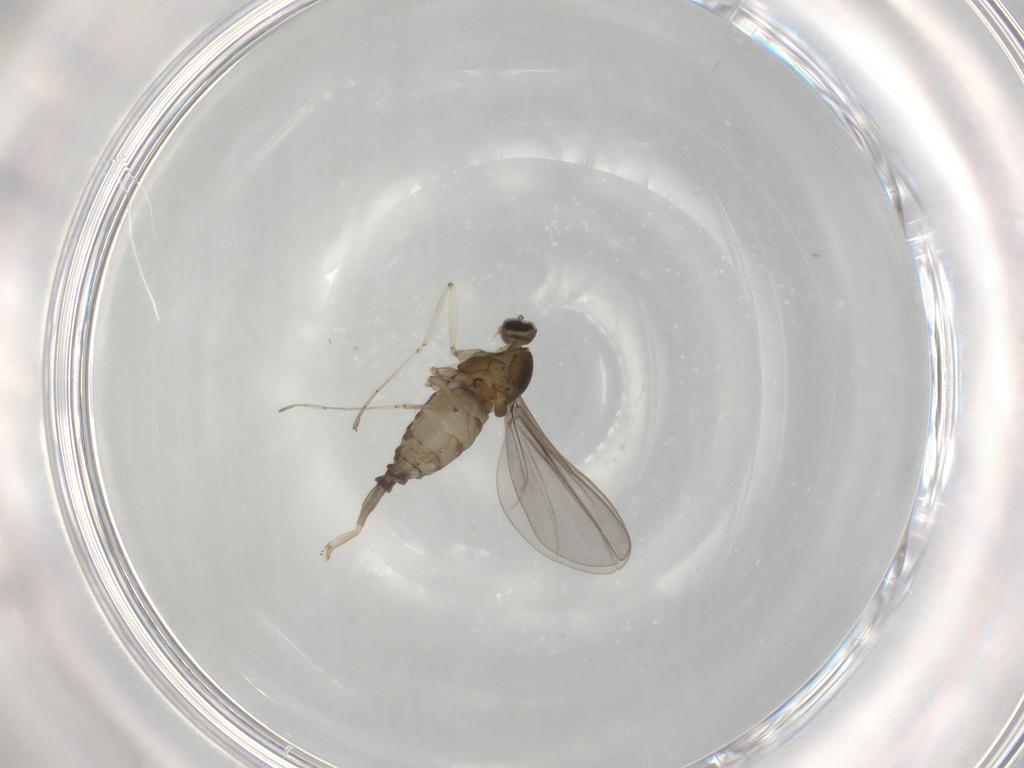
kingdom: Animalia
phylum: Arthropoda
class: Insecta
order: Diptera
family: Cecidomyiidae
